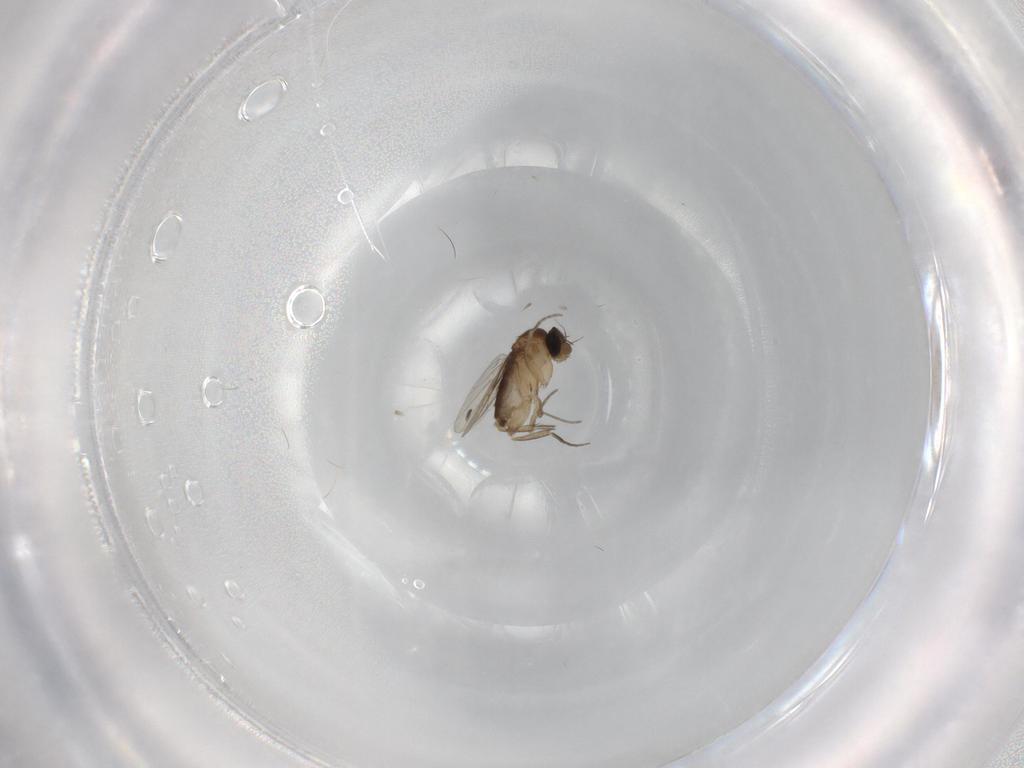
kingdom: Animalia
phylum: Arthropoda
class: Insecta
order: Diptera
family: Phoridae
